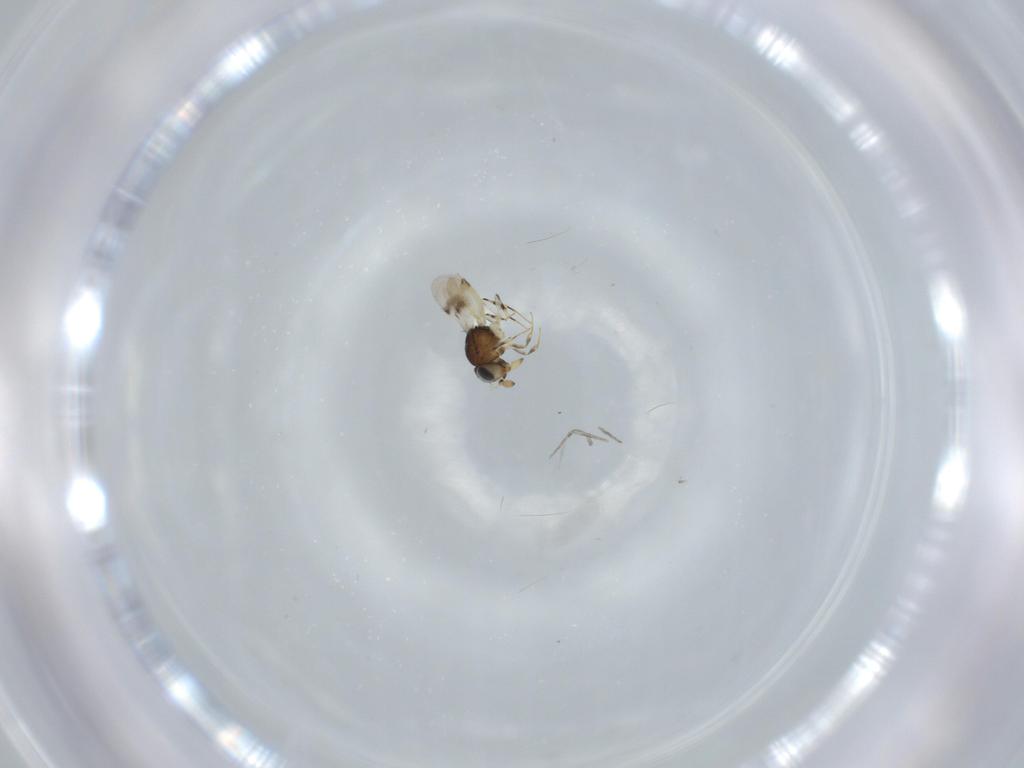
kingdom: Animalia
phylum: Arthropoda
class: Insecta
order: Hymenoptera
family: Scelionidae
